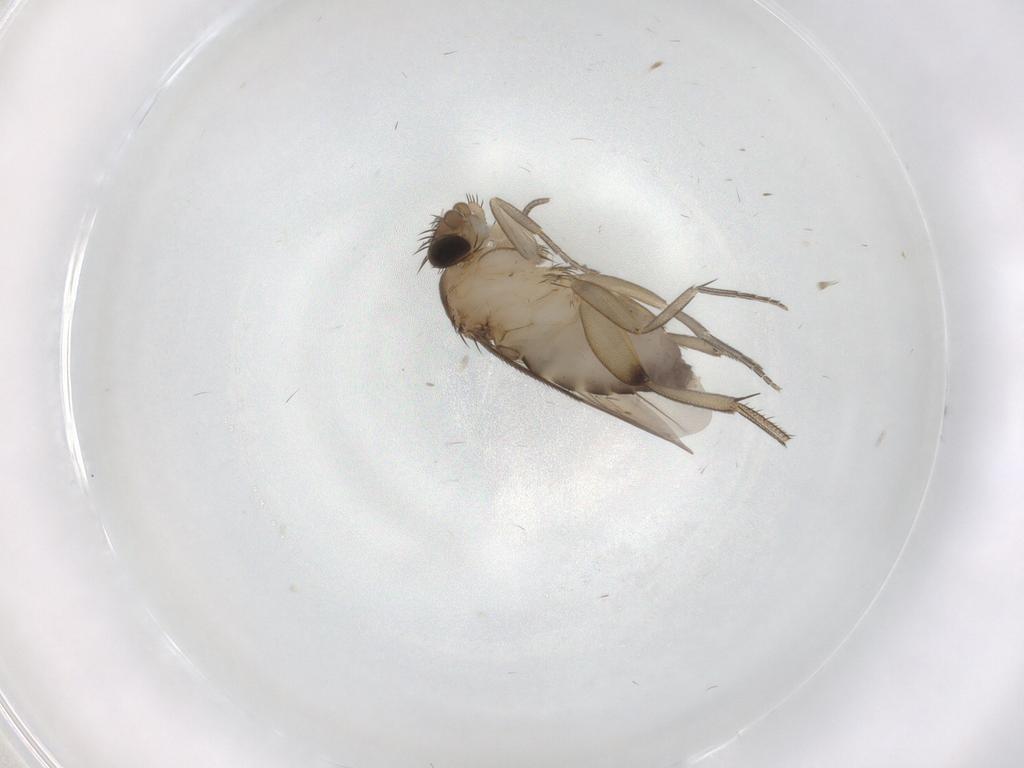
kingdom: Animalia
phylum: Arthropoda
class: Insecta
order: Diptera
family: Phoridae
